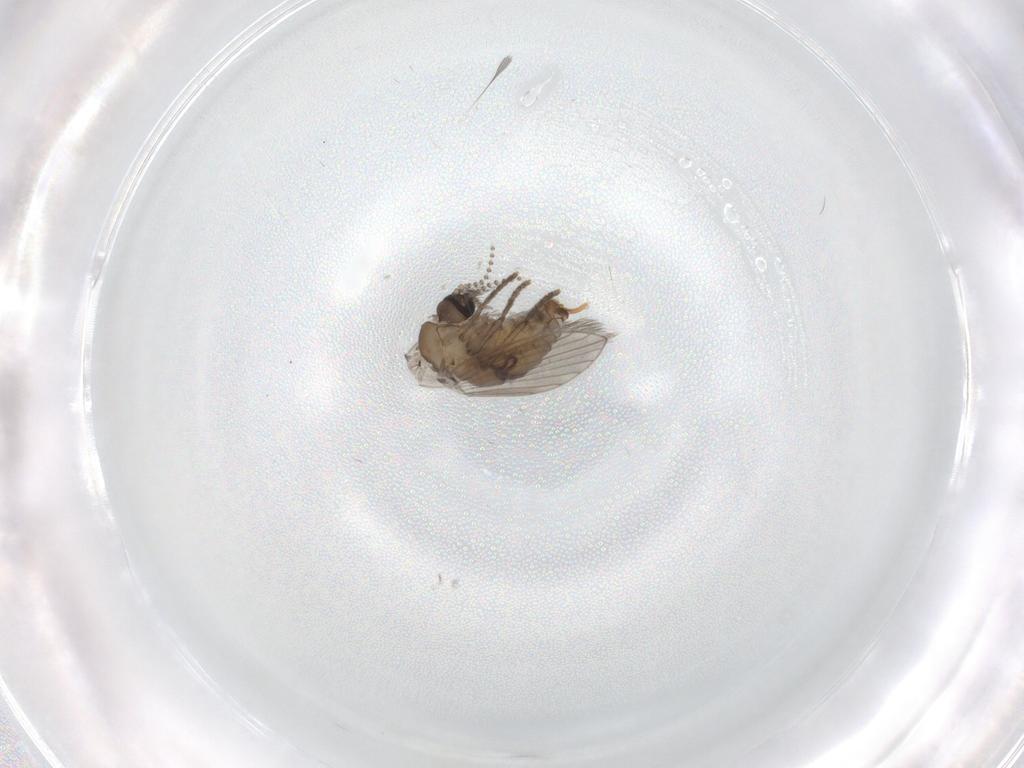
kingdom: Animalia
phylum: Arthropoda
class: Insecta
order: Diptera
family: Psychodidae
